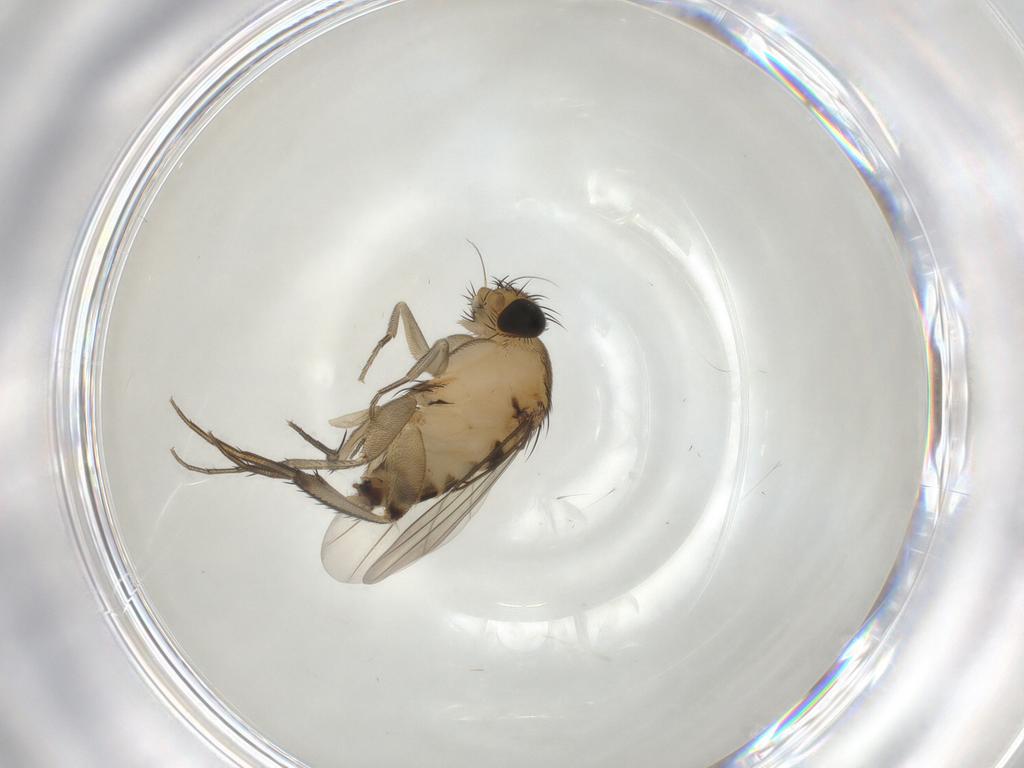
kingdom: Animalia
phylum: Arthropoda
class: Insecta
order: Diptera
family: Phoridae
